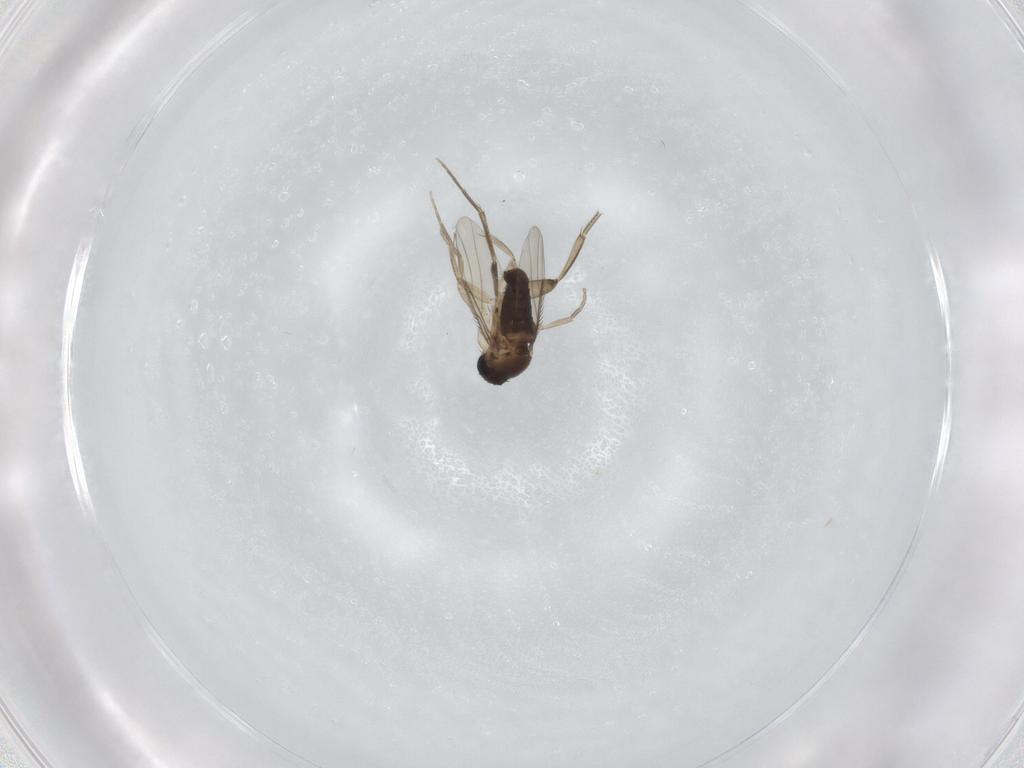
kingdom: Animalia
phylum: Arthropoda
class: Insecta
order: Diptera
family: Phoridae
